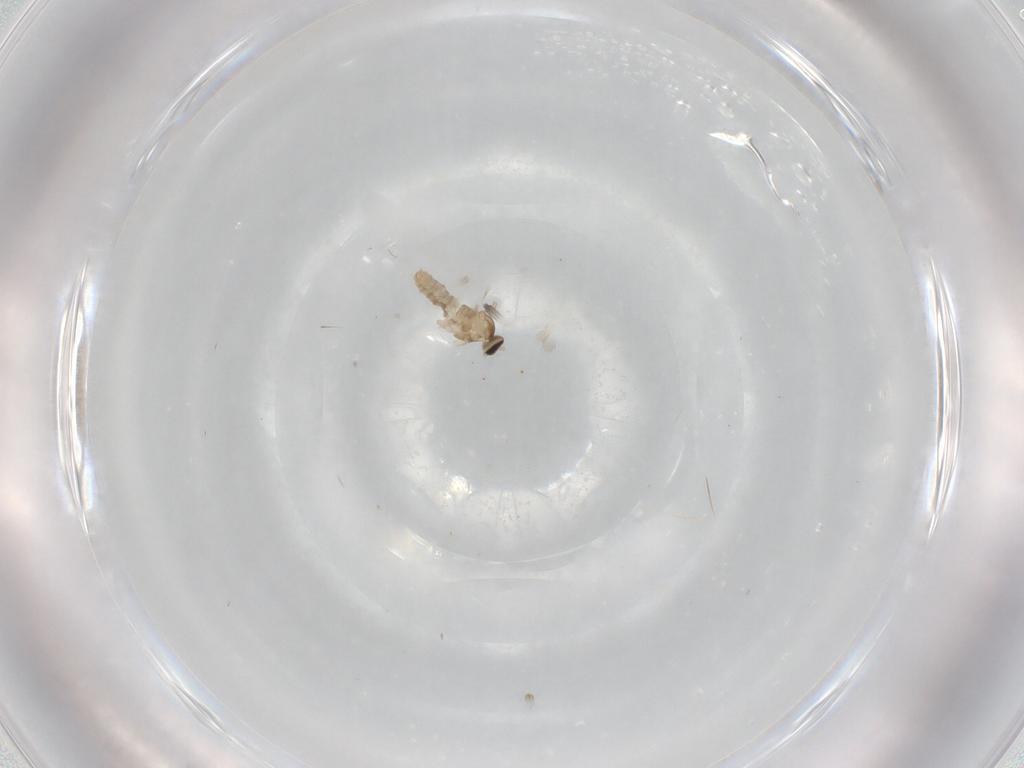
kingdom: Animalia
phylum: Arthropoda
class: Insecta
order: Diptera
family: Cecidomyiidae
